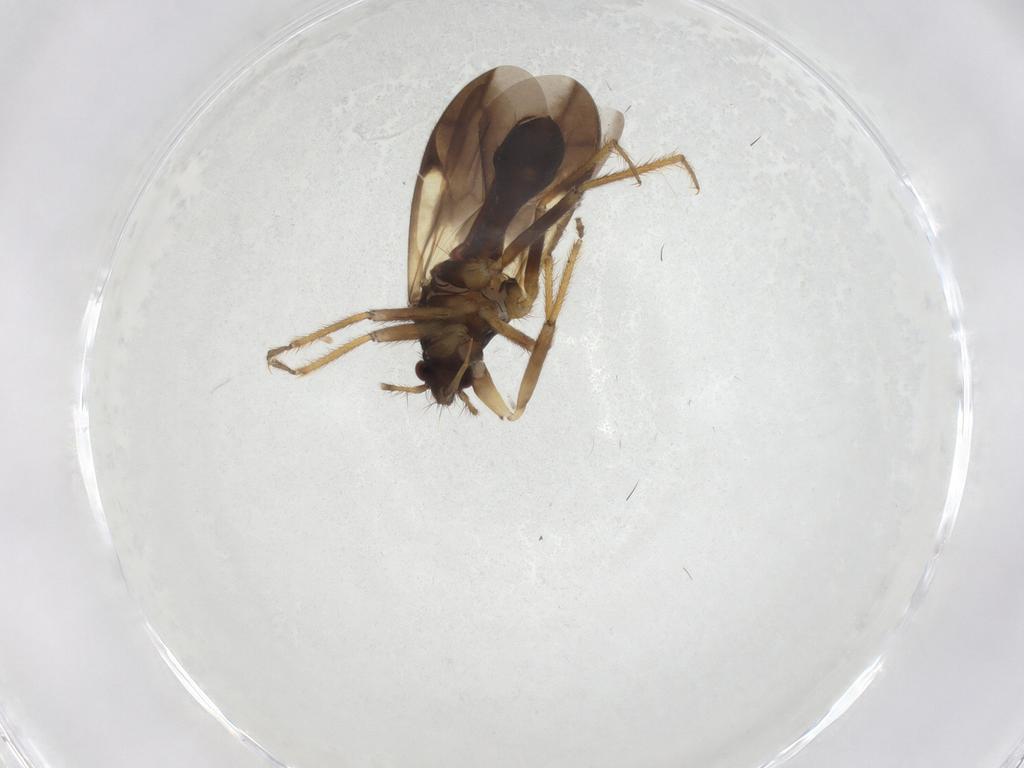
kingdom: Animalia
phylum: Arthropoda
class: Insecta
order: Hemiptera
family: Ceratocombidae
